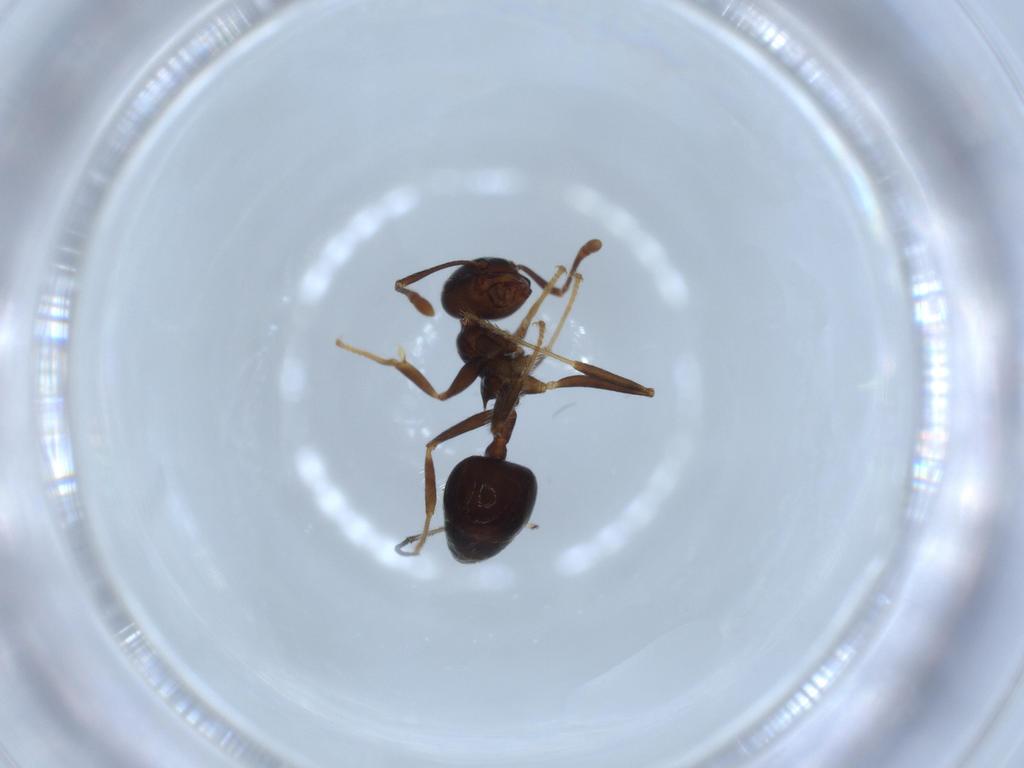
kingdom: Animalia
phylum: Arthropoda
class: Insecta
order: Hymenoptera
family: Formicidae
